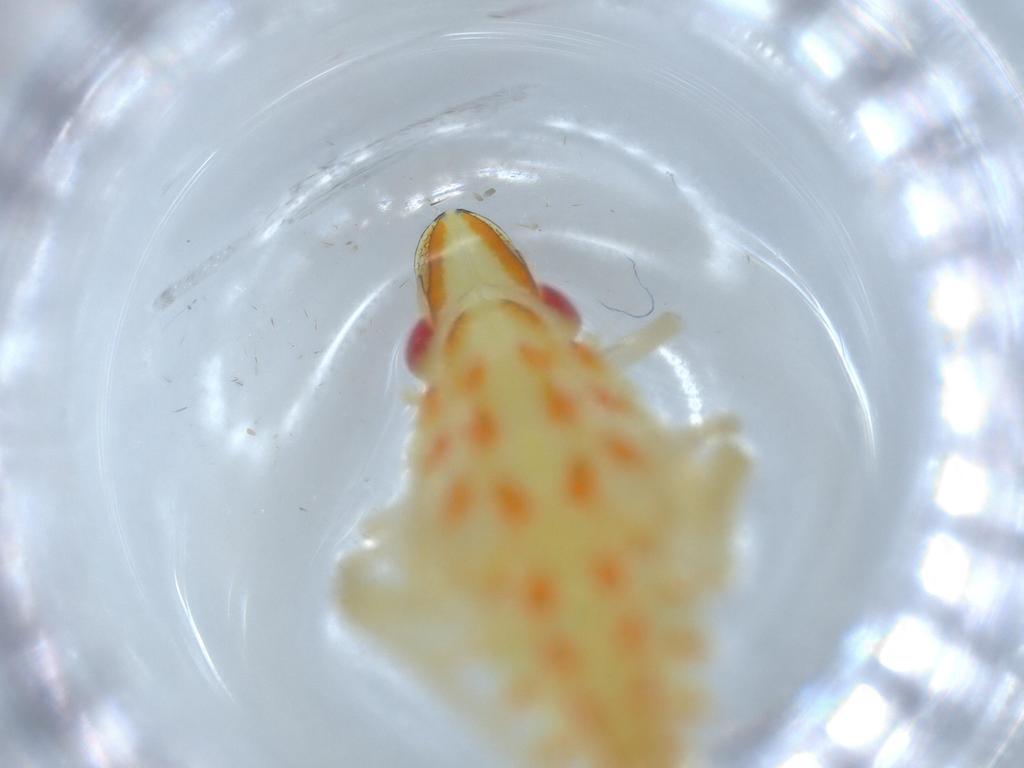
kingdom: Animalia
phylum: Arthropoda
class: Insecta
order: Hemiptera
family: Tropiduchidae
